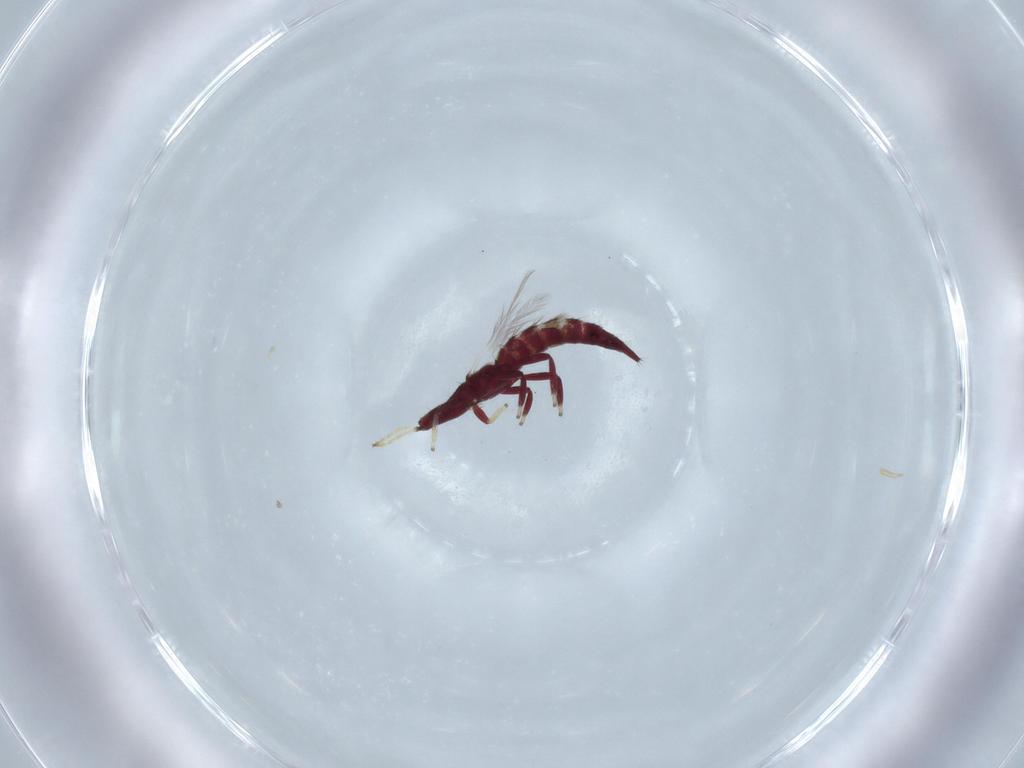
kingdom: Animalia
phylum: Arthropoda
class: Insecta
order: Thysanoptera
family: Phlaeothripidae
